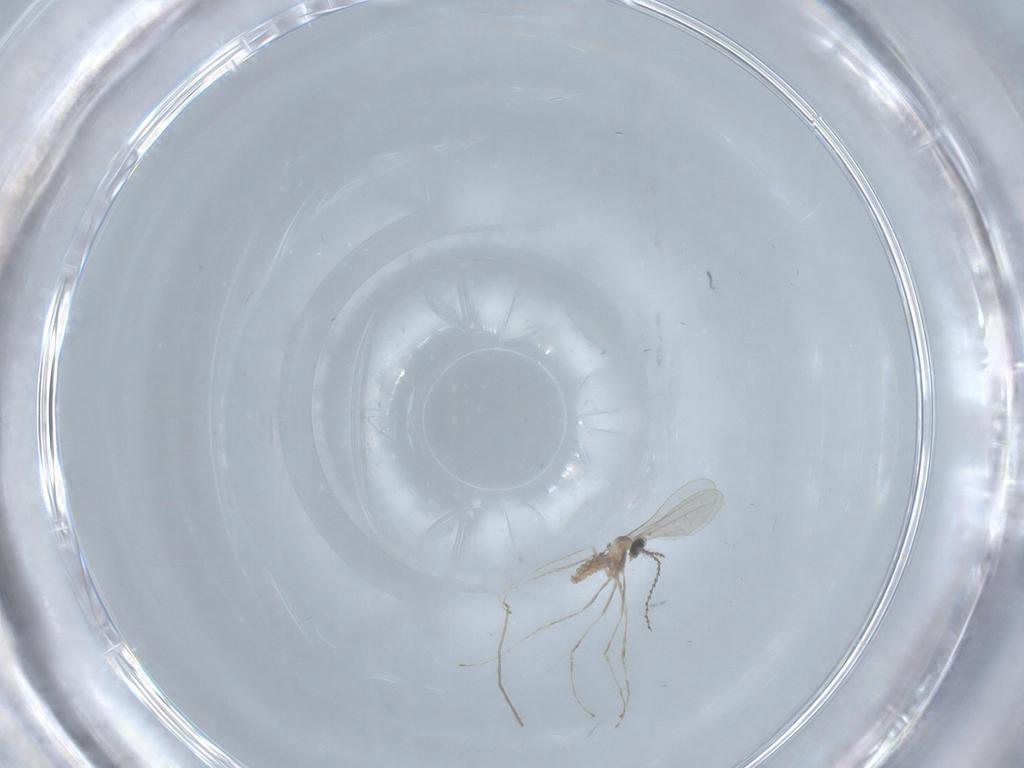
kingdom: Animalia
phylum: Arthropoda
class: Insecta
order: Diptera
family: Cecidomyiidae
